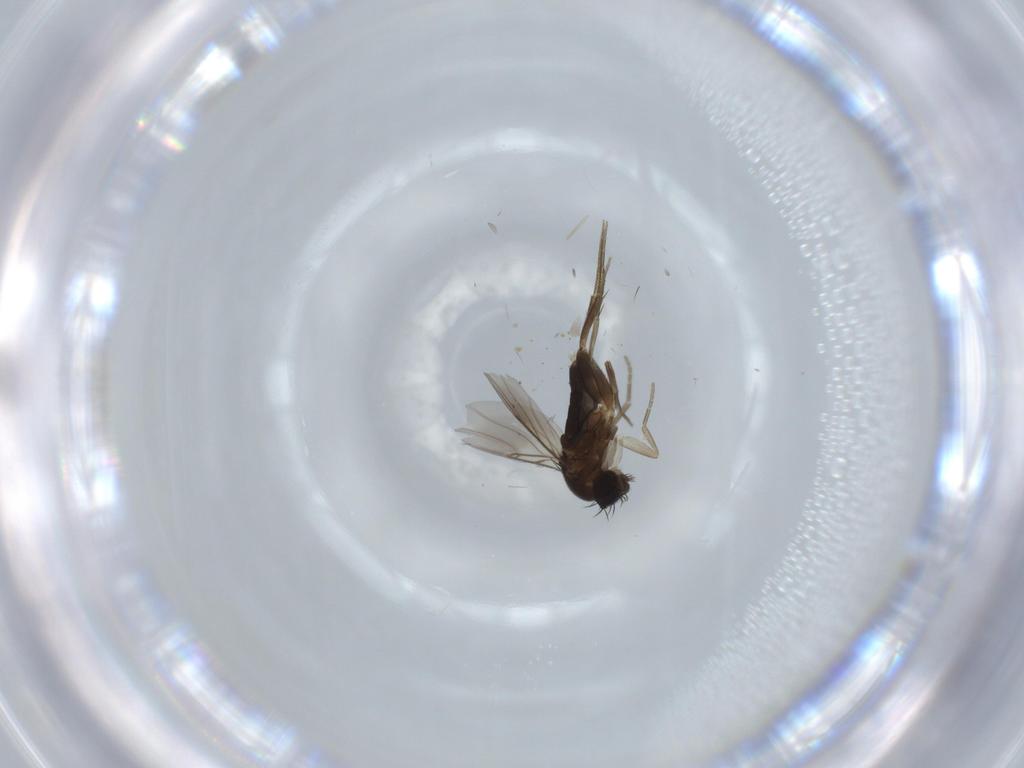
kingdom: Animalia
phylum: Arthropoda
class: Insecta
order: Diptera
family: Phoridae
